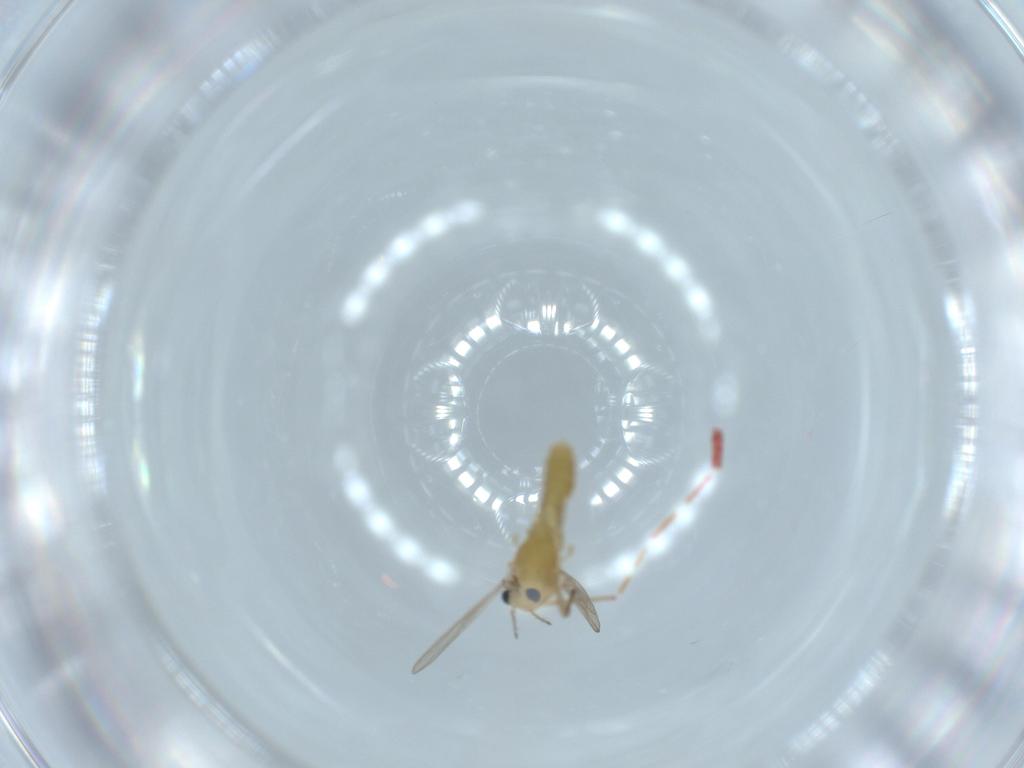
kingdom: Animalia
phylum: Arthropoda
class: Insecta
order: Diptera
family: Chironomidae
